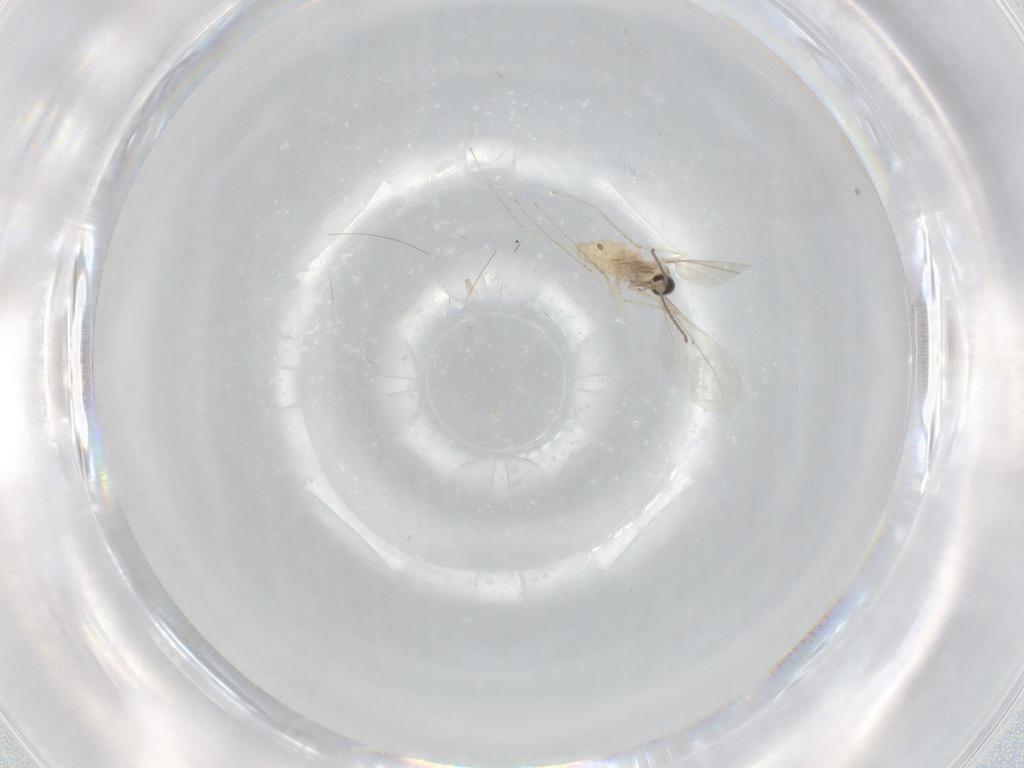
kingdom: Animalia
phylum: Arthropoda
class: Insecta
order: Diptera
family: Cecidomyiidae
